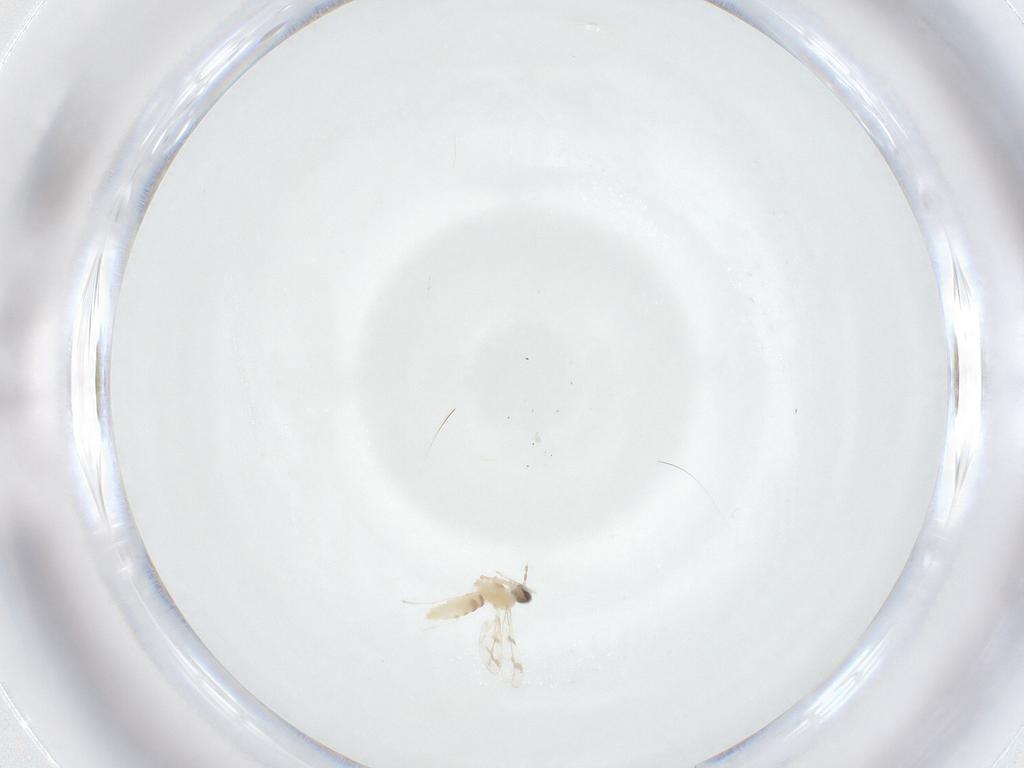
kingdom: Animalia
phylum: Arthropoda
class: Insecta
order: Diptera
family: Cecidomyiidae
